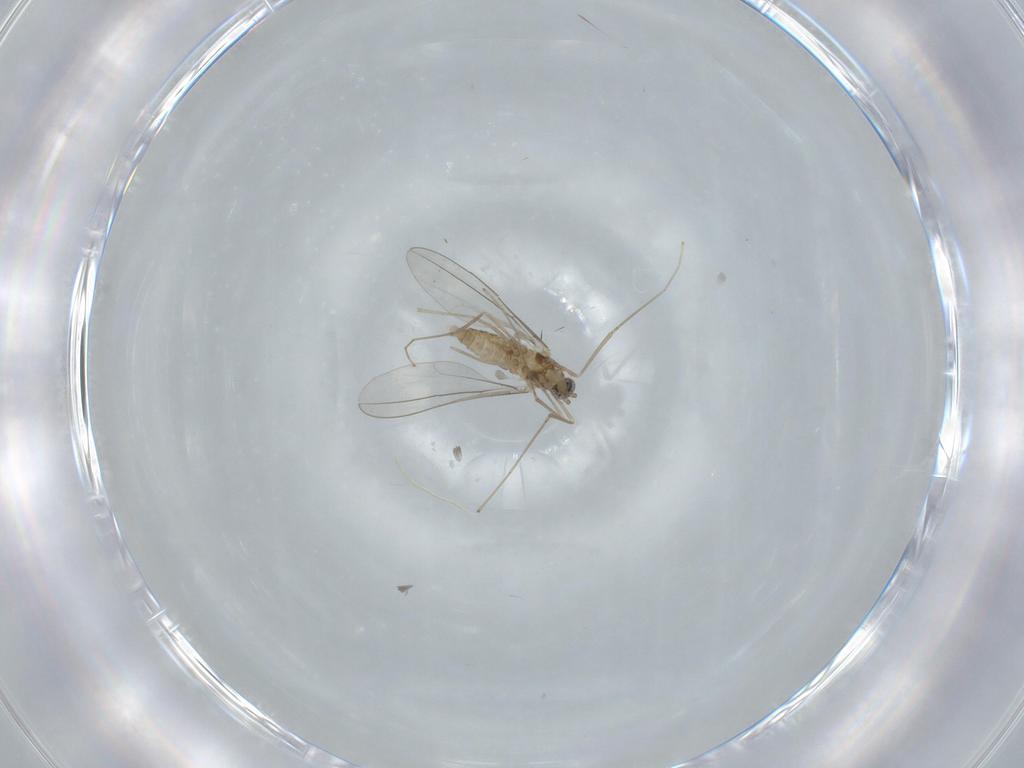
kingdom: Animalia
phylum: Arthropoda
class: Insecta
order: Diptera
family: Cecidomyiidae
